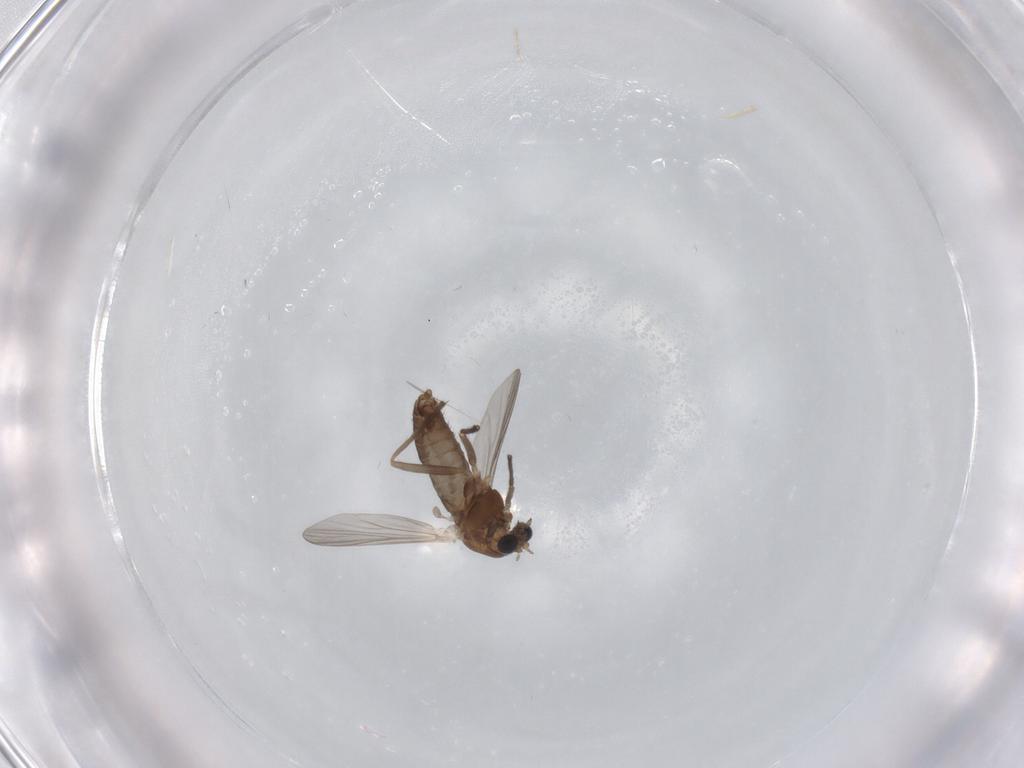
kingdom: Animalia
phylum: Arthropoda
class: Insecta
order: Diptera
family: Chironomidae
